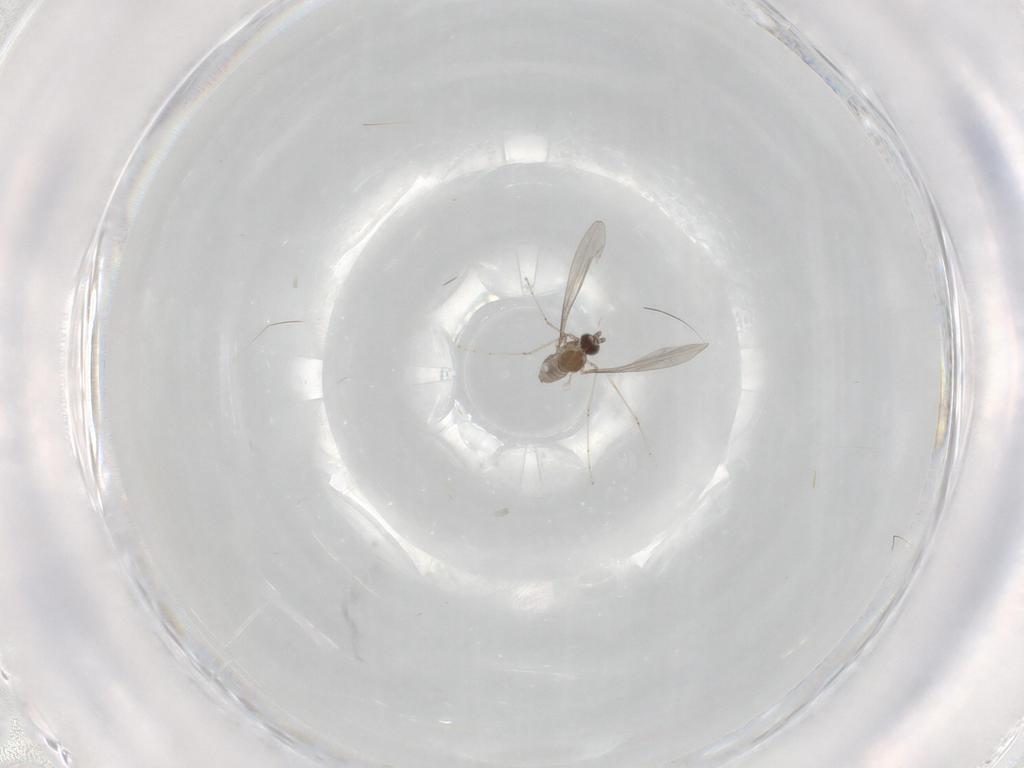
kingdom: Animalia
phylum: Arthropoda
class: Insecta
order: Diptera
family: Cecidomyiidae
